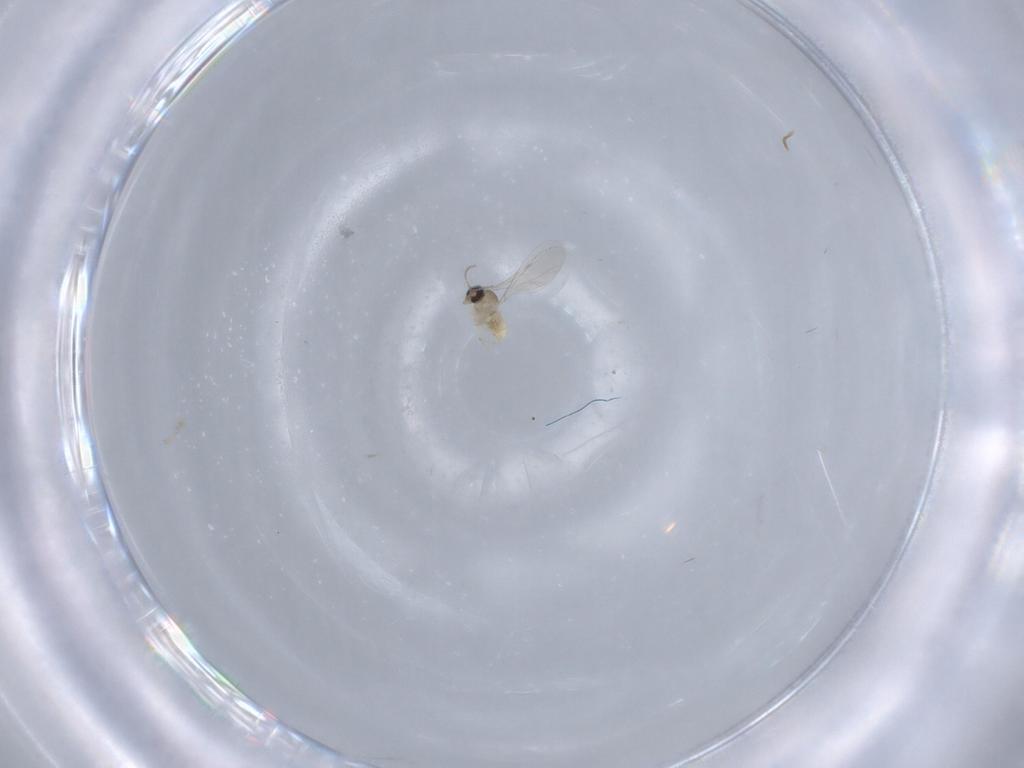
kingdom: Animalia
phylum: Arthropoda
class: Insecta
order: Diptera
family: Cecidomyiidae
